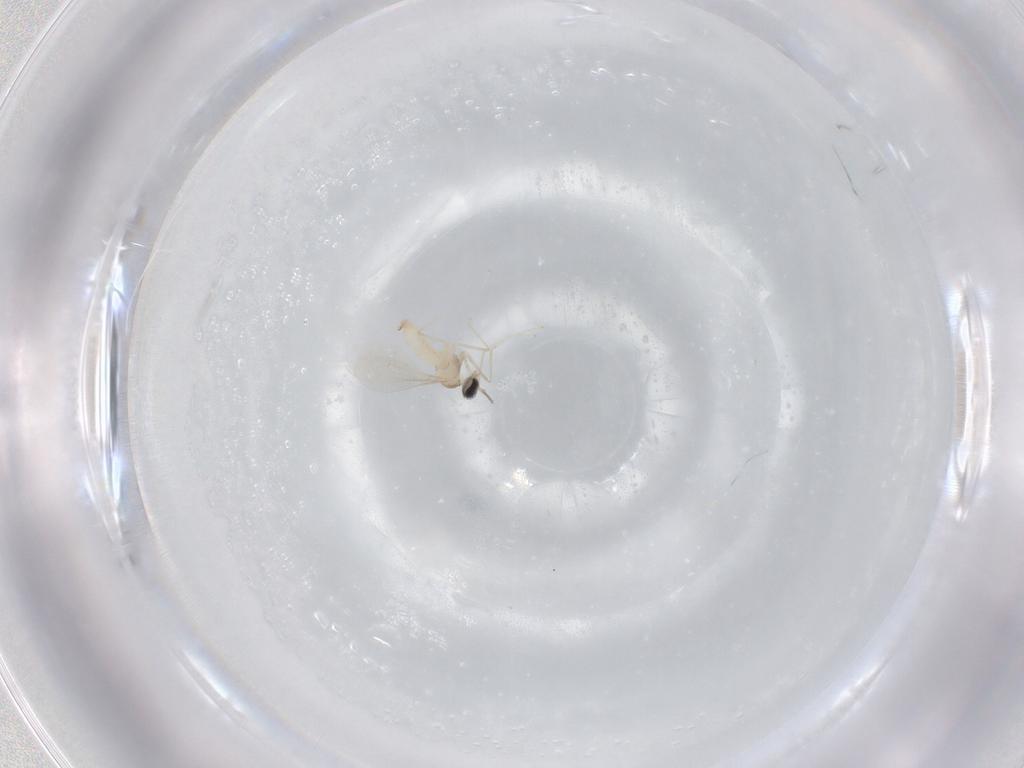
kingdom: Animalia
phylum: Arthropoda
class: Insecta
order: Diptera
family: Cecidomyiidae
